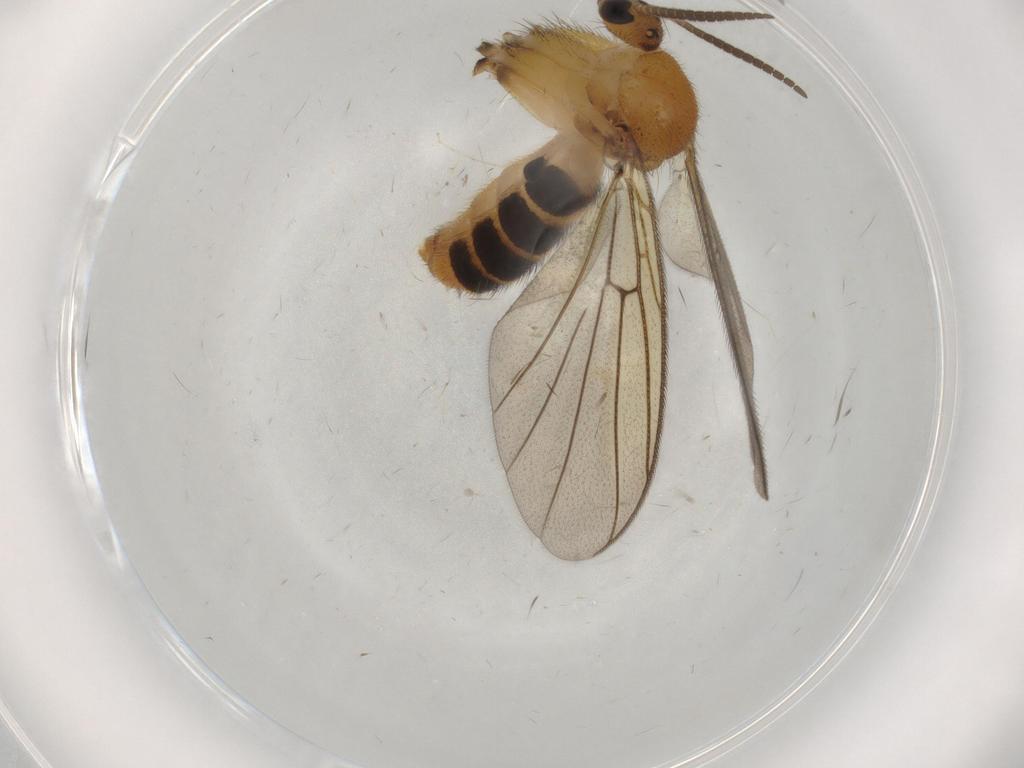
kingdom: Animalia
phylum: Arthropoda
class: Insecta
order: Diptera
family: Mycetophilidae
